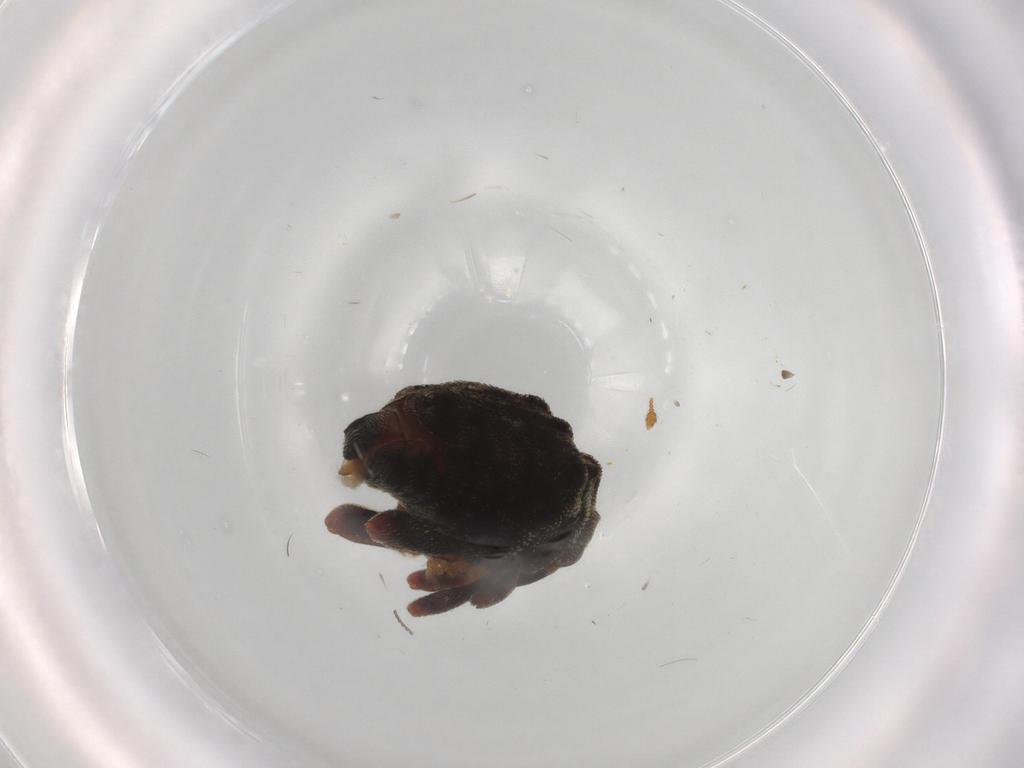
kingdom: Animalia
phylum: Arthropoda
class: Insecta
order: Coleoptera
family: Curculionidae
